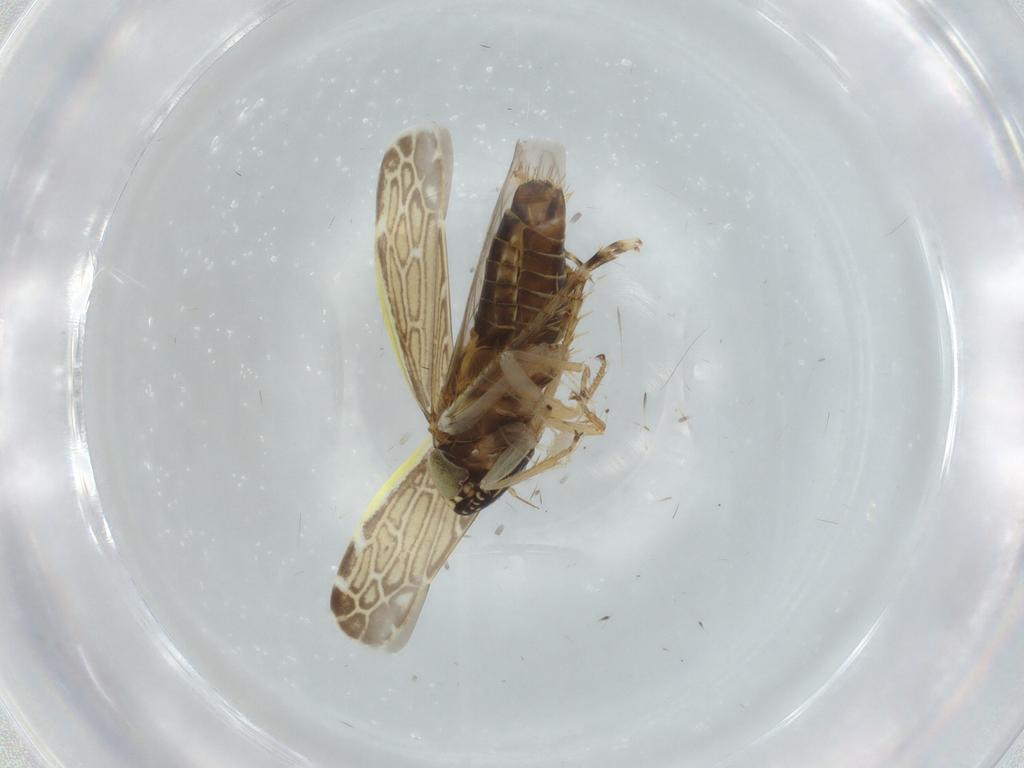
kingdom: Animalia
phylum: Arthropoda
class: Insecta
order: Hemiptera
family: Cicadellidae
